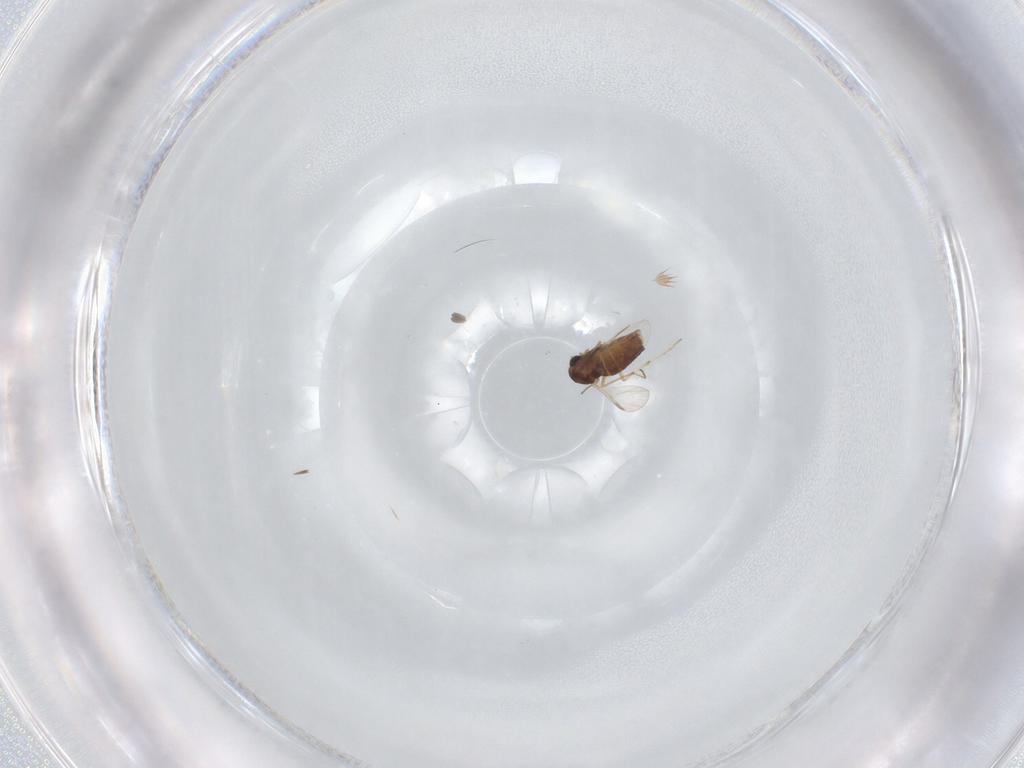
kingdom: Animalia
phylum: Arthropoda
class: Insecta
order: Diptera
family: Chironomidae
